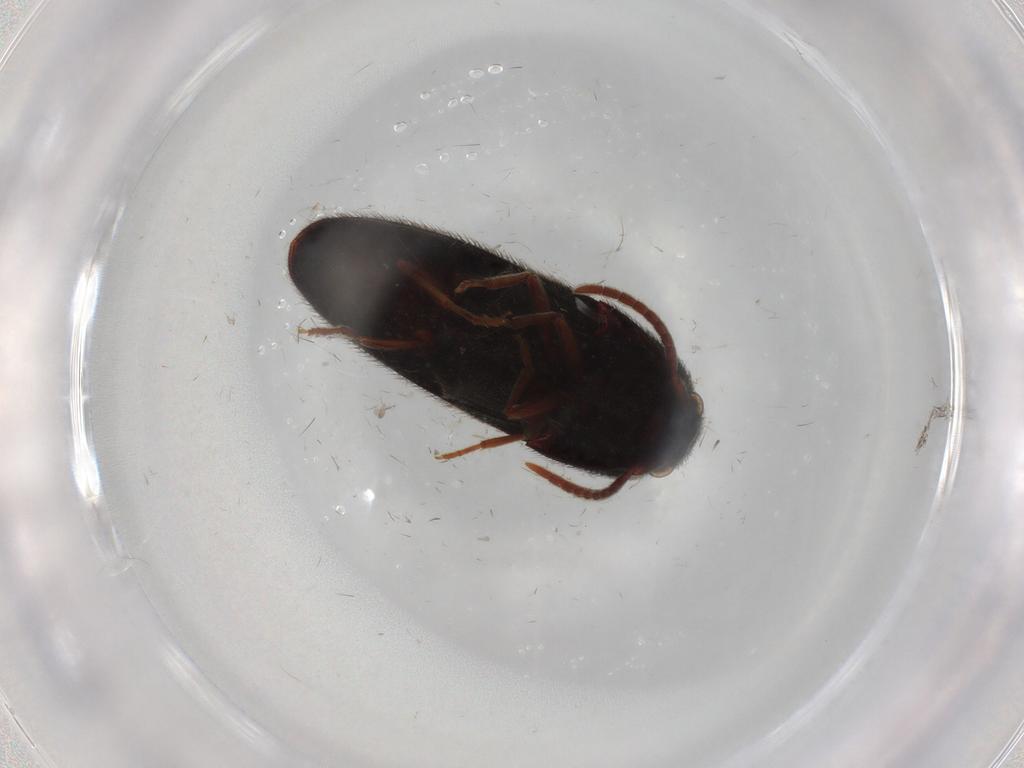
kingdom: Animalia
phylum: Arthropoda
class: Insecta
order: Coleoptera
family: Eucnemidae
